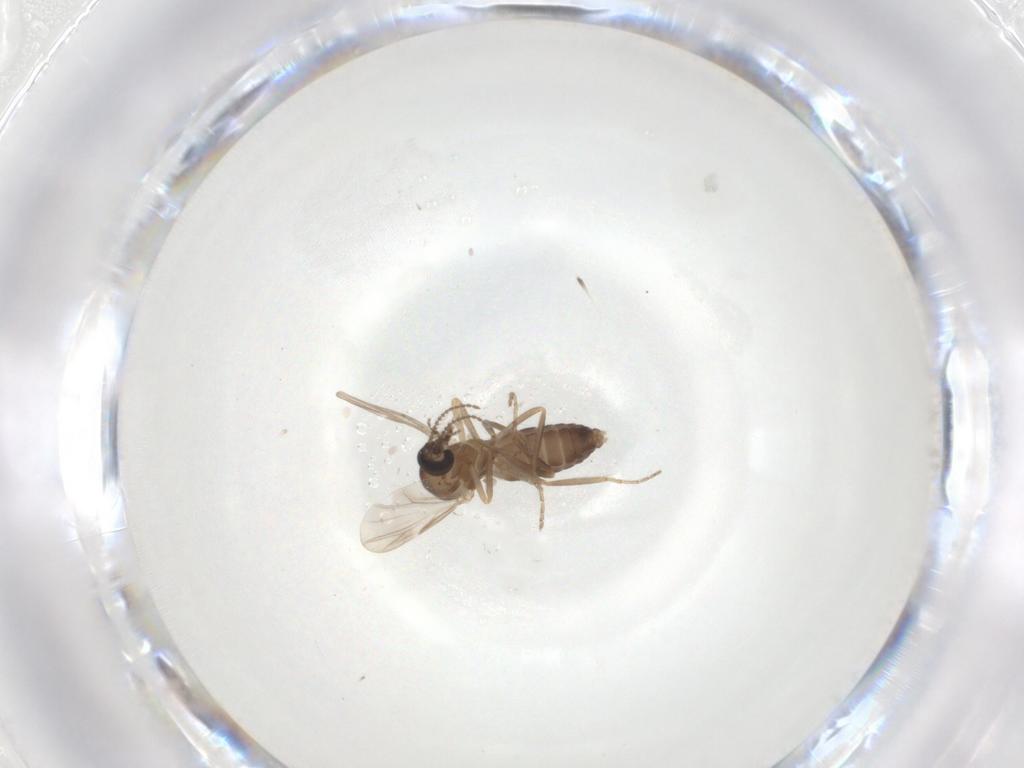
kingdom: Animalia
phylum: Arthropoda
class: Insecta
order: Diptera
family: Ceratopogonidae
